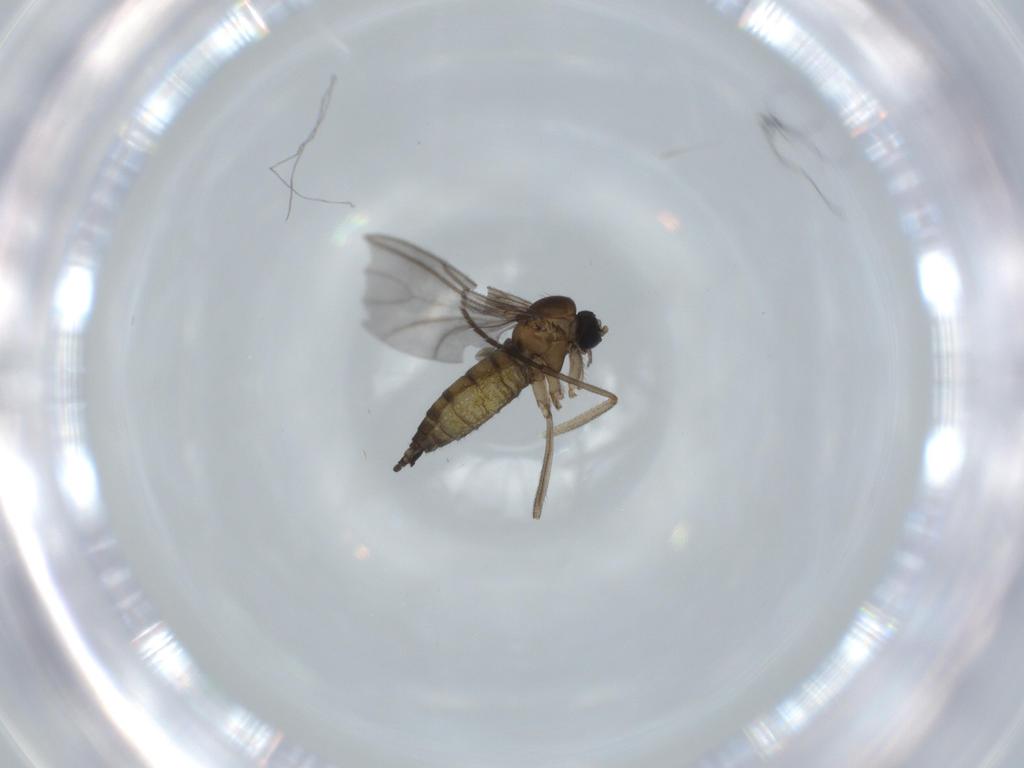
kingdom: Animalia
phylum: Arthropoda
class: Insecta
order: Diptera
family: Sciaridae
